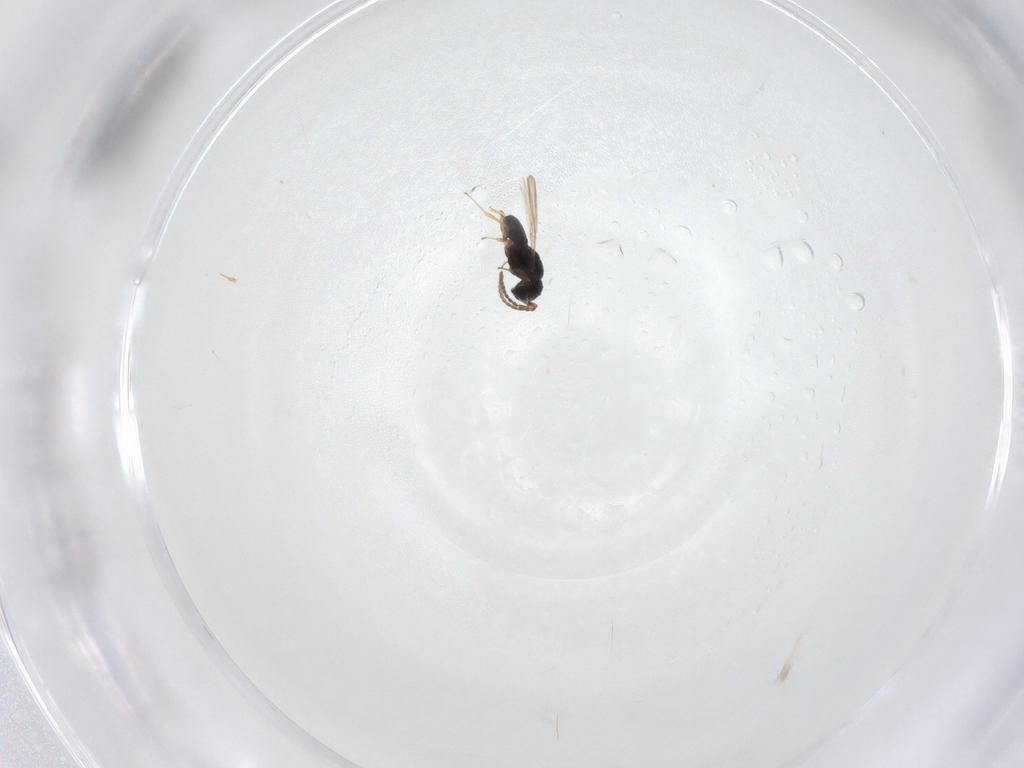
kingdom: Animalia
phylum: Arthropoda
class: Insecta
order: Hymenoptera
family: Scelionidae
